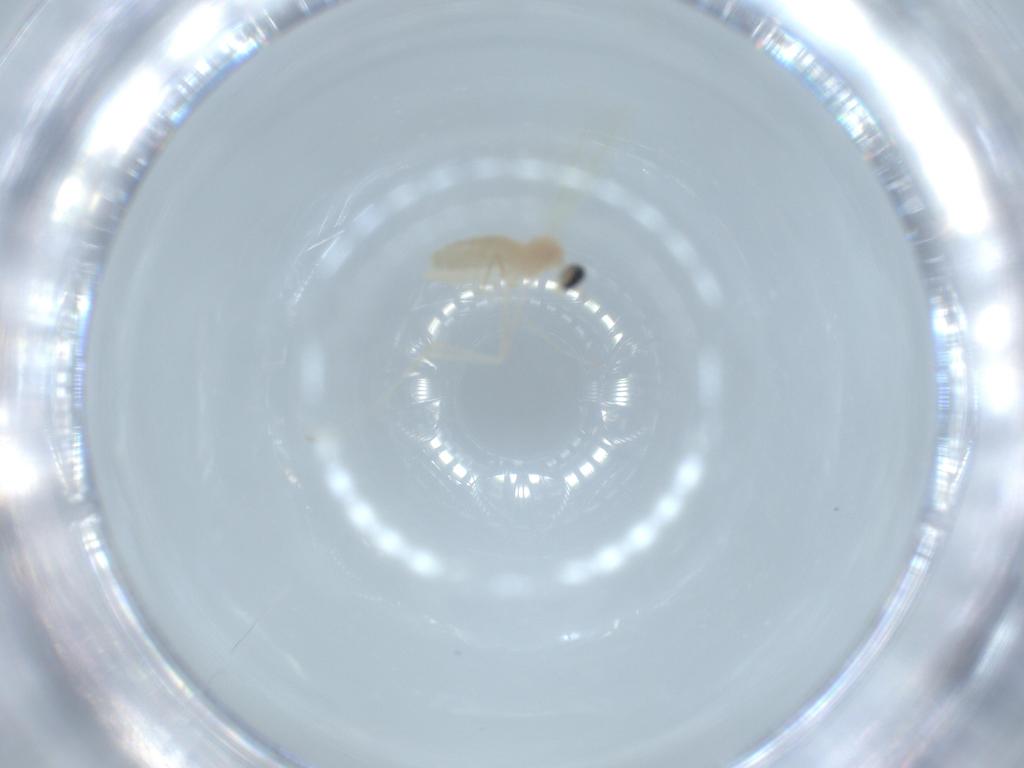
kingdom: Animalia
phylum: Arthropoda
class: Insecta
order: Diptera
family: Cecidomyiidae
